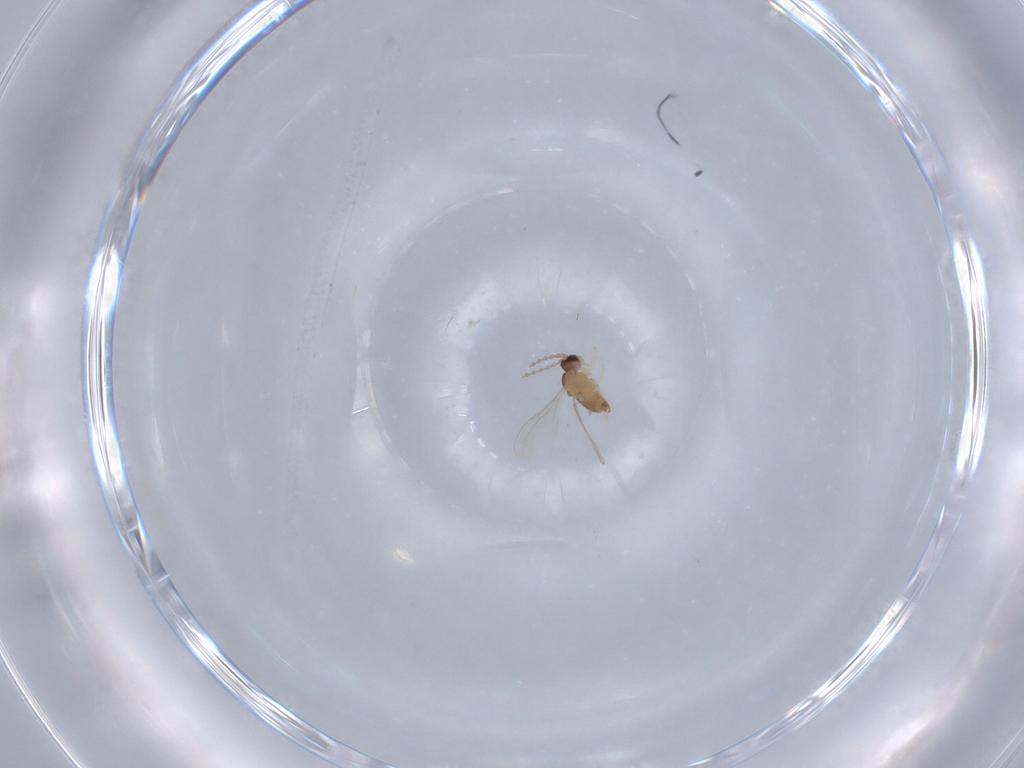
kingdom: Animalia
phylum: Arthropoda
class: Insecta
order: Diptera
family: Cecidomyiidae
